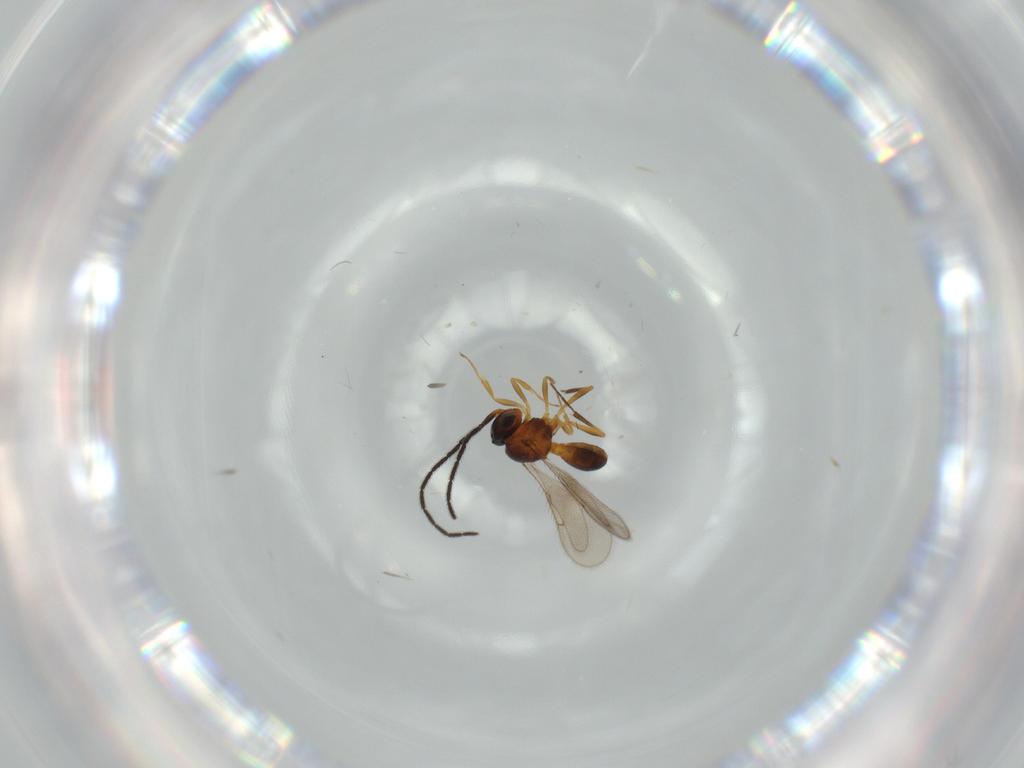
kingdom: Animalia
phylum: Arthropoda
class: Insecta
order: Hymenoptera
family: Scelionidae
